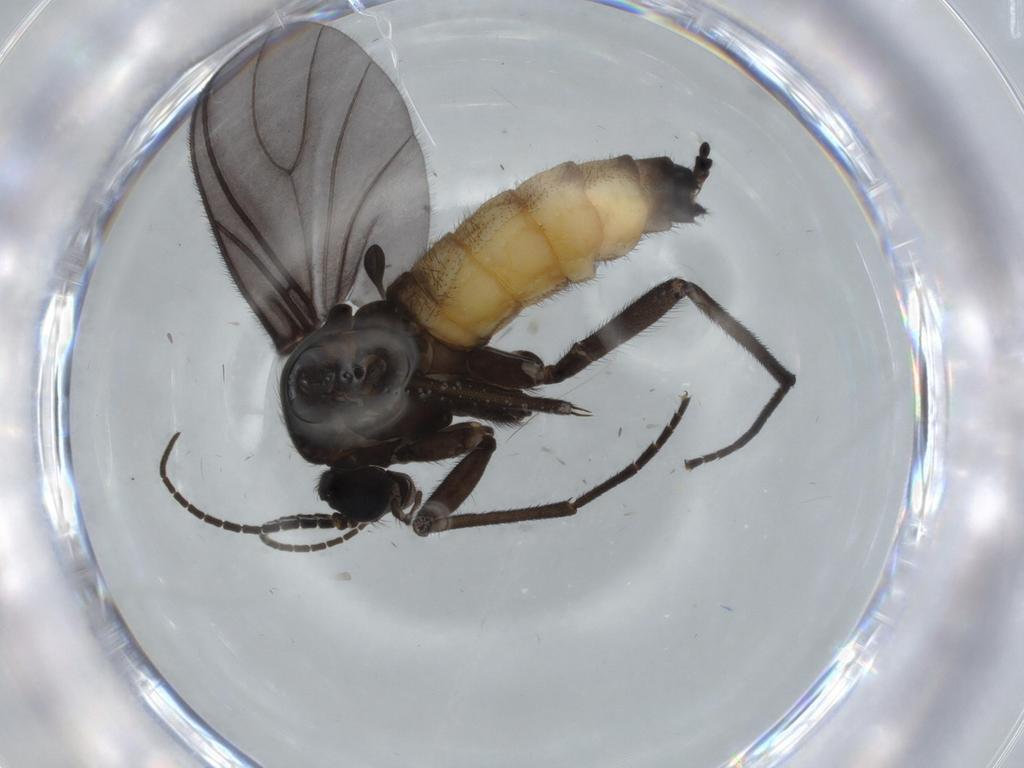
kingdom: Animalia
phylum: Arthropoda
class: Insecta
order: Diptera
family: Sciaridae
